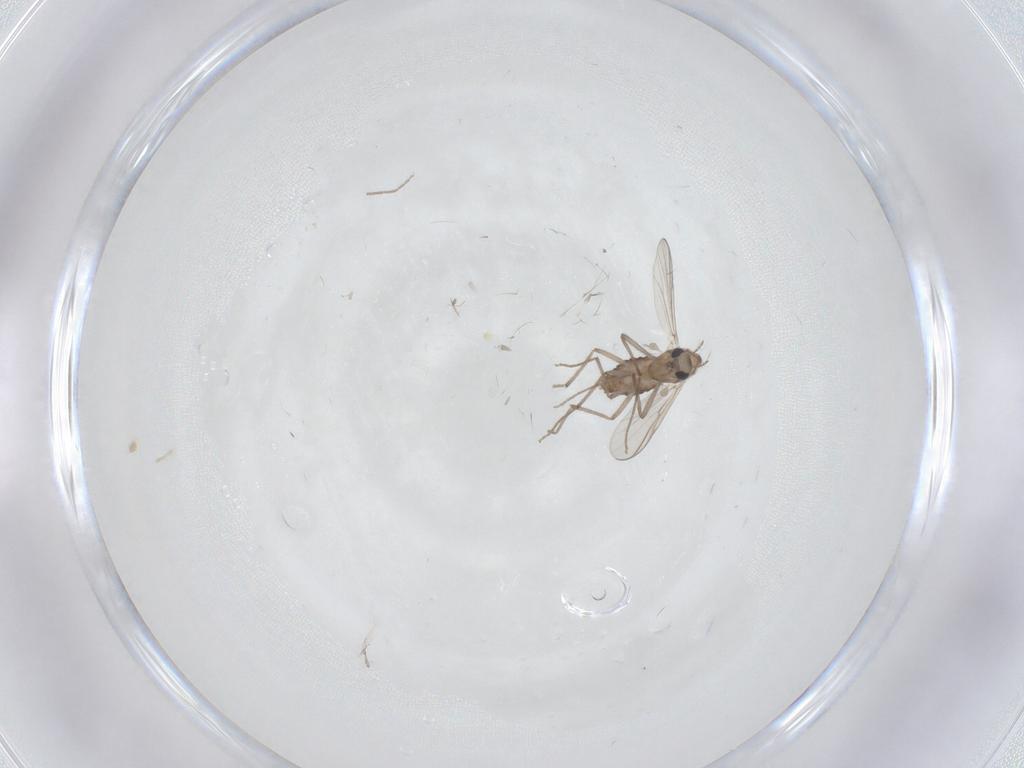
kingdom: Animalia
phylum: Arthropoda
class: Insecta
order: Diptera
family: Chironomidae
